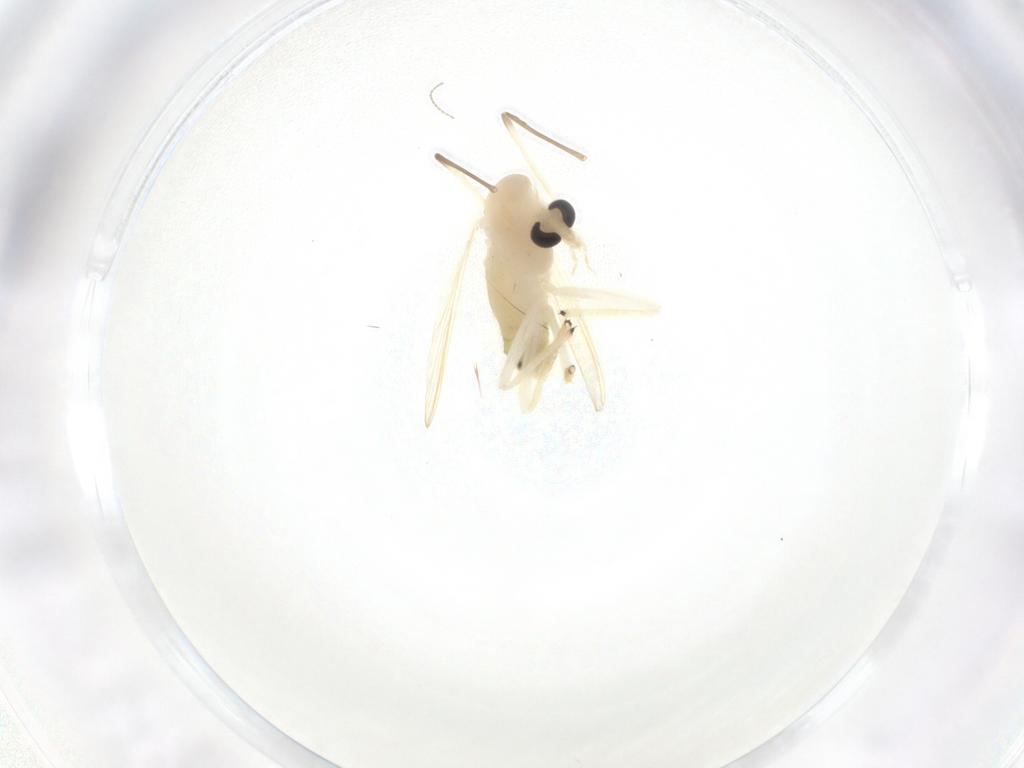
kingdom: Animalia
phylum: Arthropoda
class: Insecta
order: Diptera
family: Chironomidae
